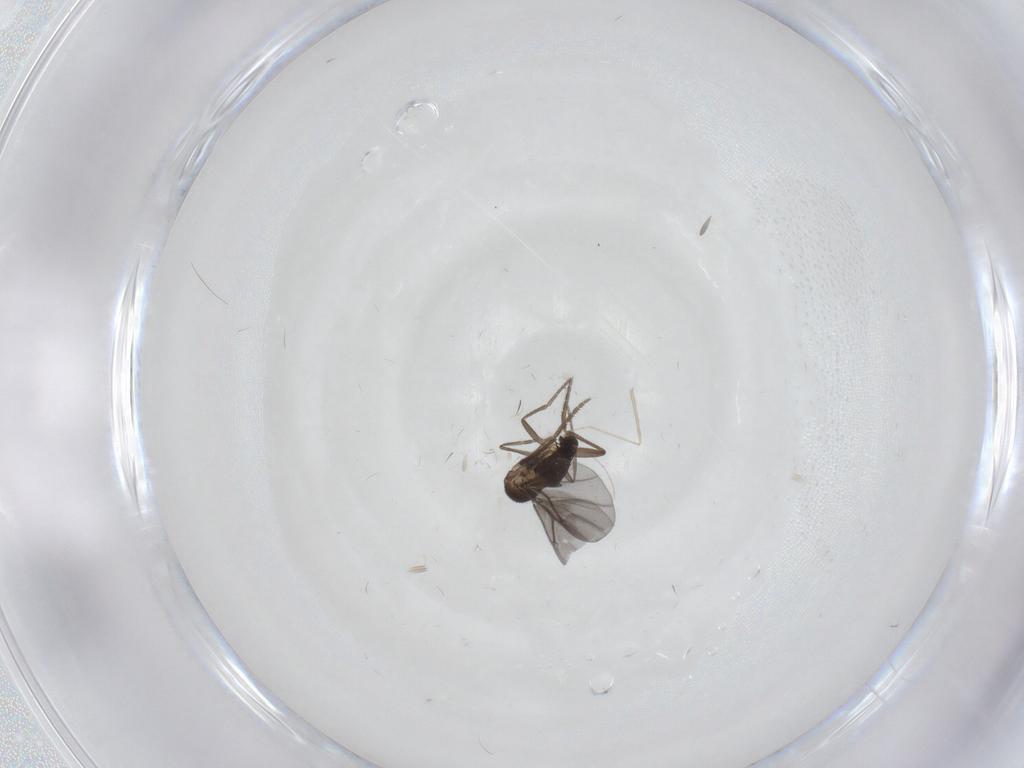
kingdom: Animalia
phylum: Arthropoda
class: Insecta
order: Diptera
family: Cecidomyiidae
